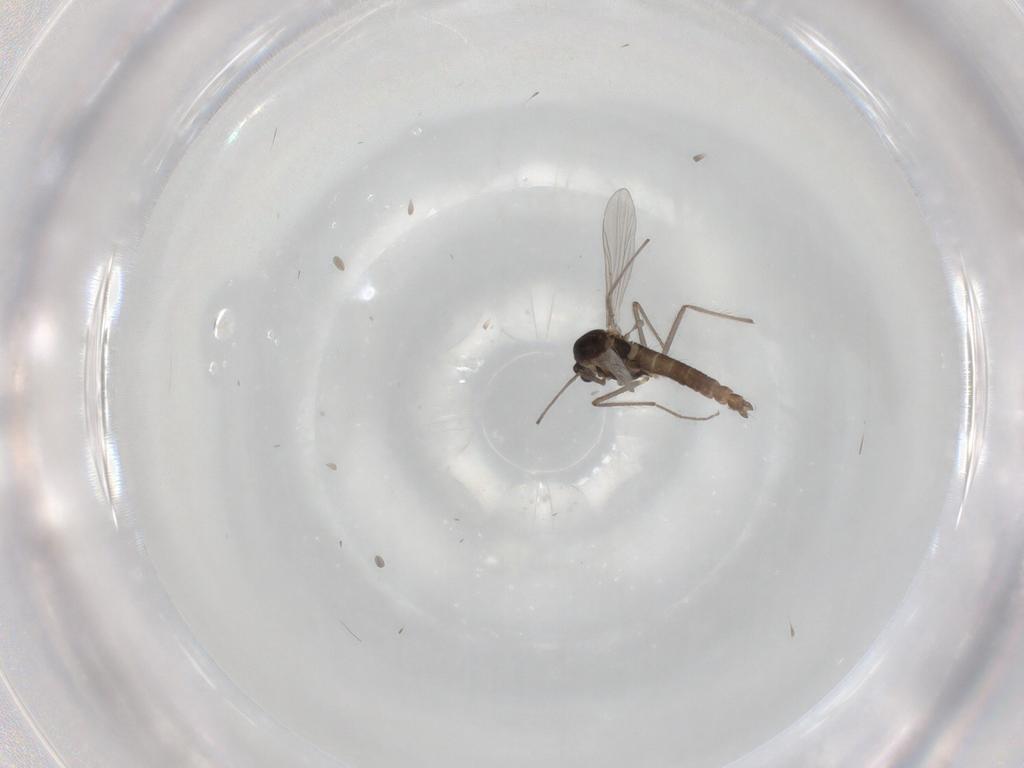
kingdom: Animalia
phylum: Arthropoda
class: Insecta
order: Diptera
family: Chironomidae
